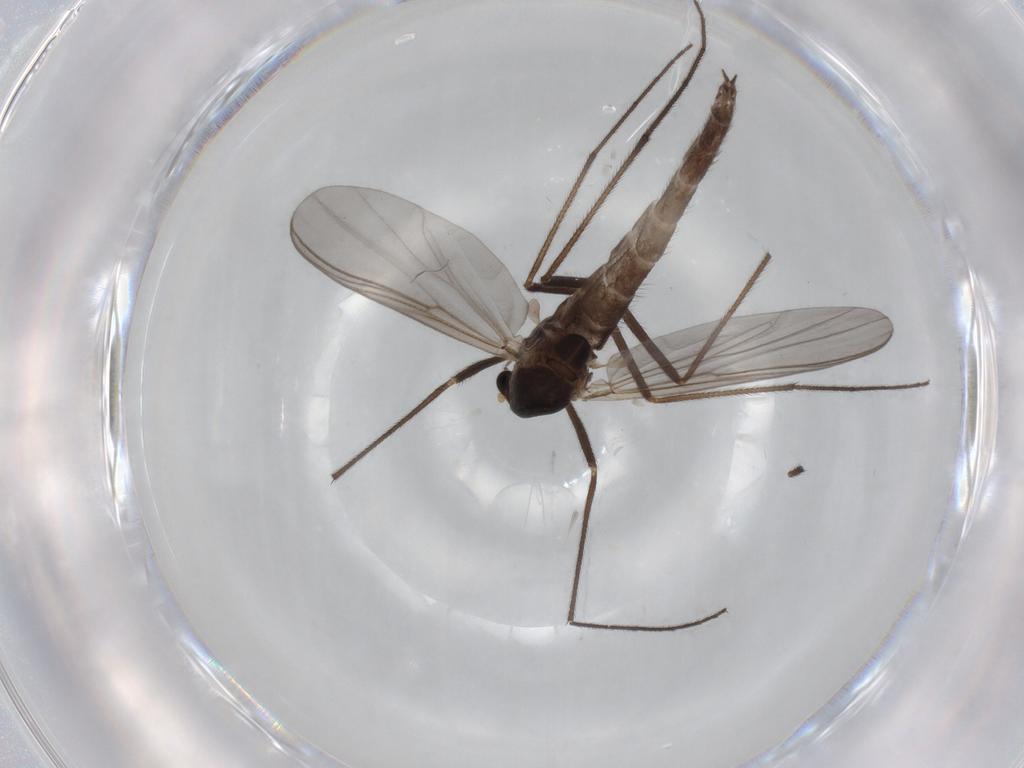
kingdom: Animalia
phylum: Arthropoda
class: Insecta
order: Diptera
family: Chironomidae
